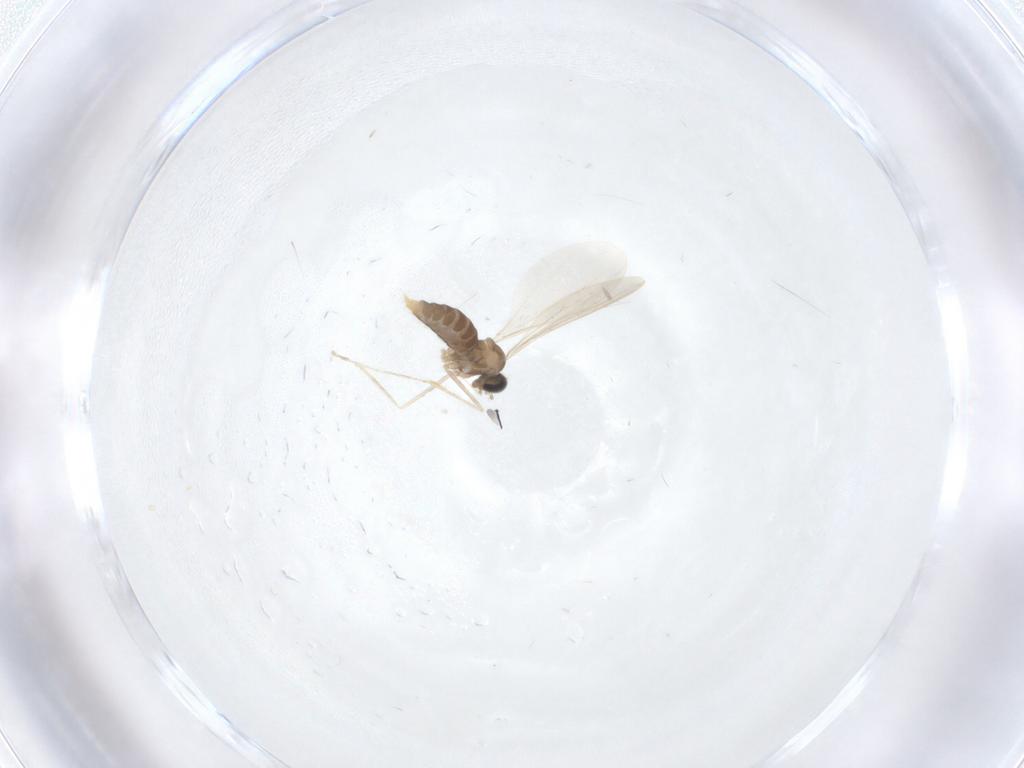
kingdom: Animalia
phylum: Arthropoda
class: Insecta
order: Diptera
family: Cecidomyiidae
